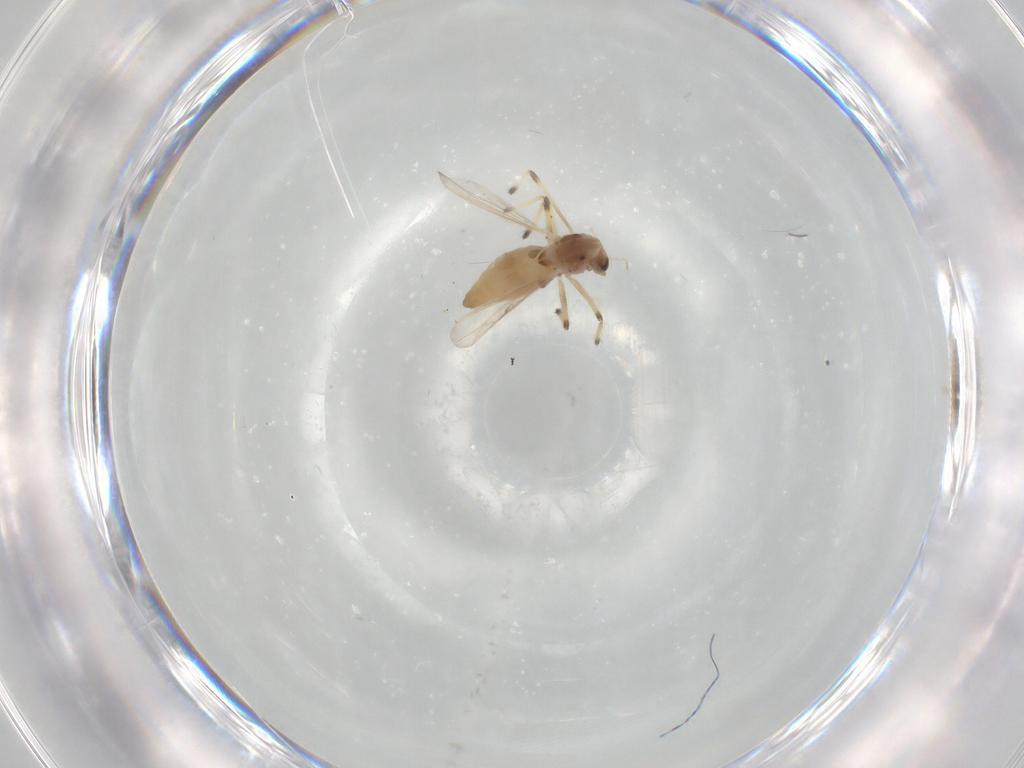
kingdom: Animalia
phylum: Arthropoda
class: Insecta
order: Diptera
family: Chironomidae
